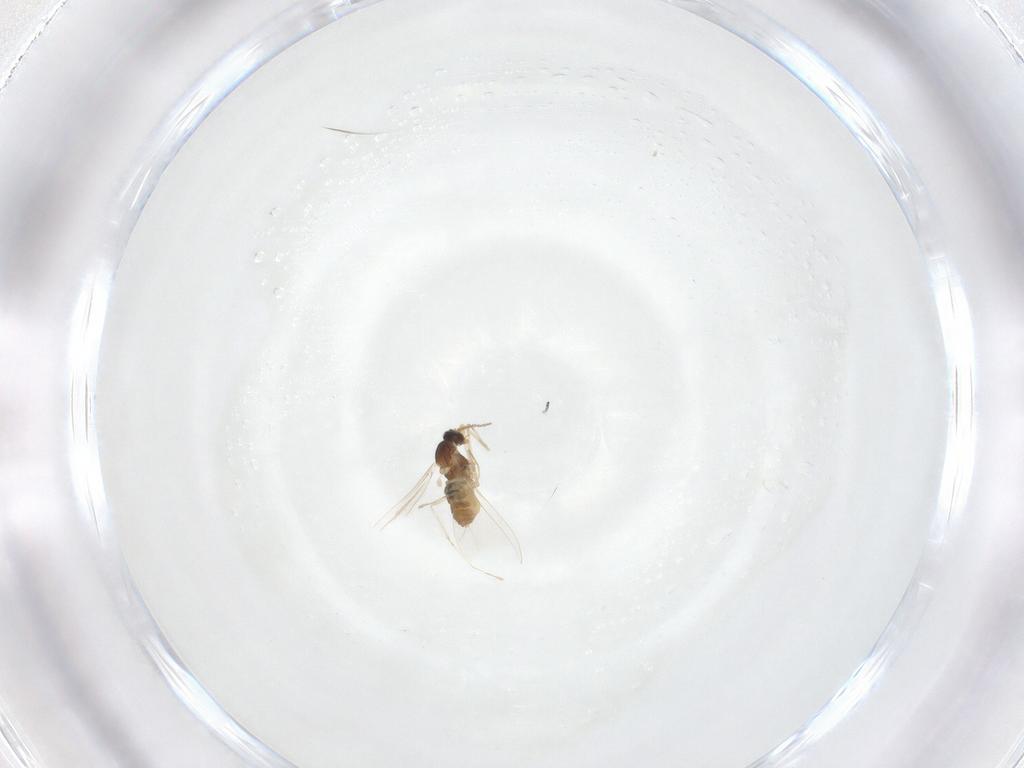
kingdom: Animalia
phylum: Arthropoda
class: Insecta
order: Diptera
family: Cecidomyiidae
